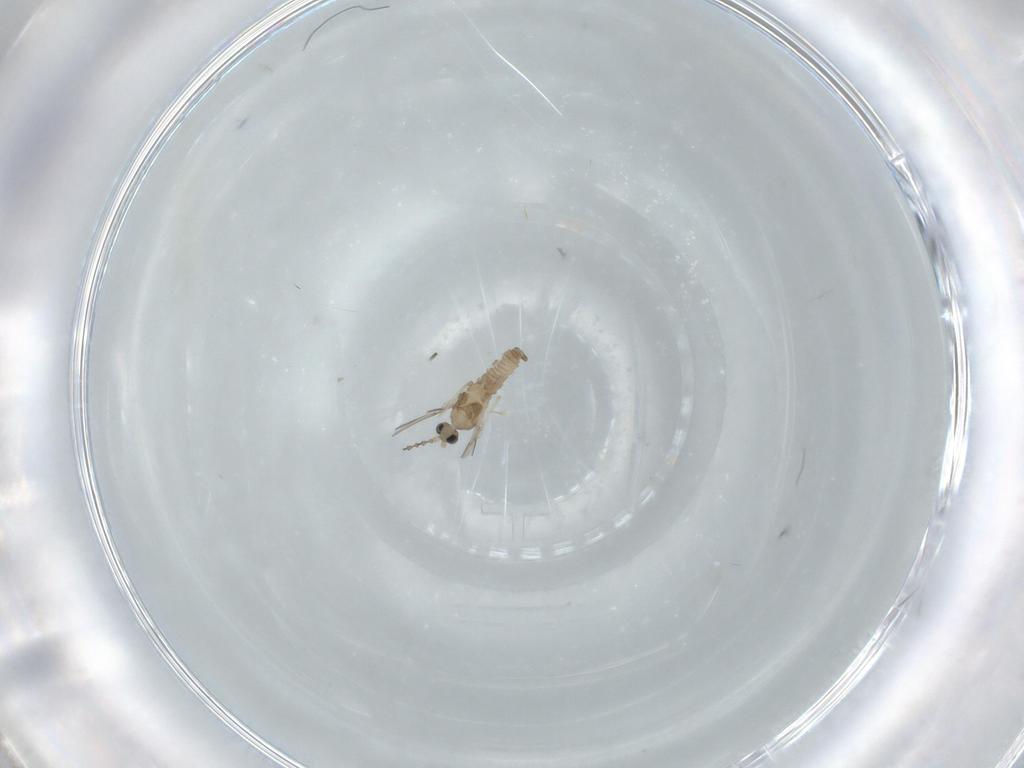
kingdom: Animalia
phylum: Arthropoda
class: Insecta
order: Diptera
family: Cecidomyiidae
